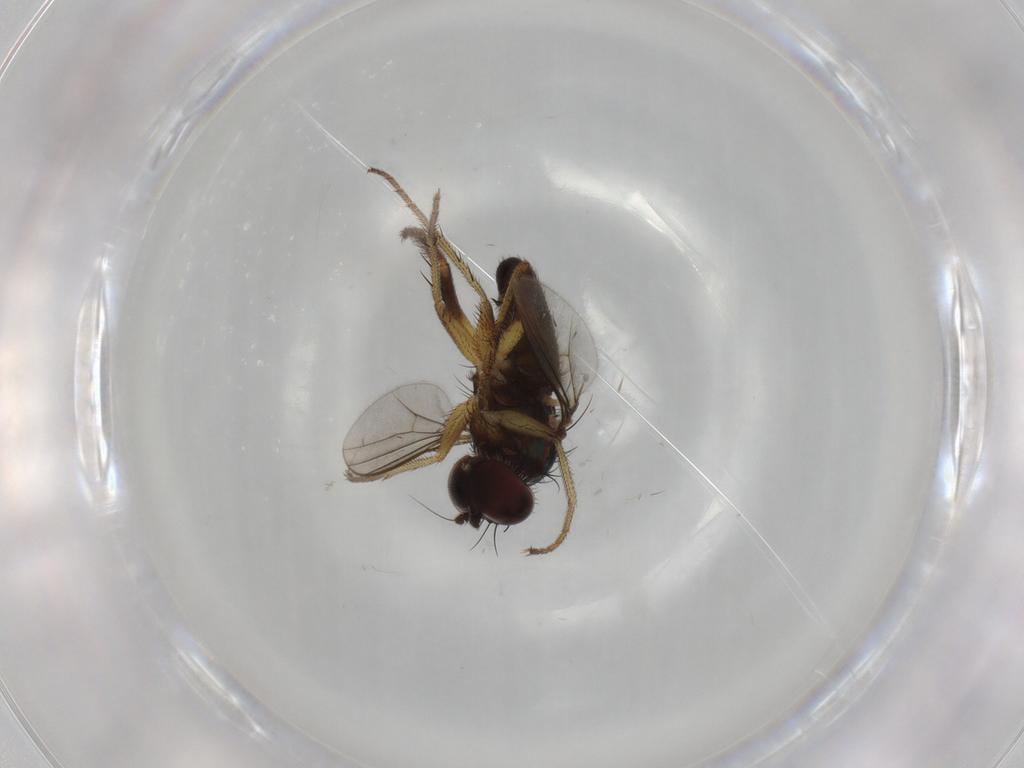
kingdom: Animalia
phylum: Arthropoda
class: Insecta
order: Diptera
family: Dolichopodidae
